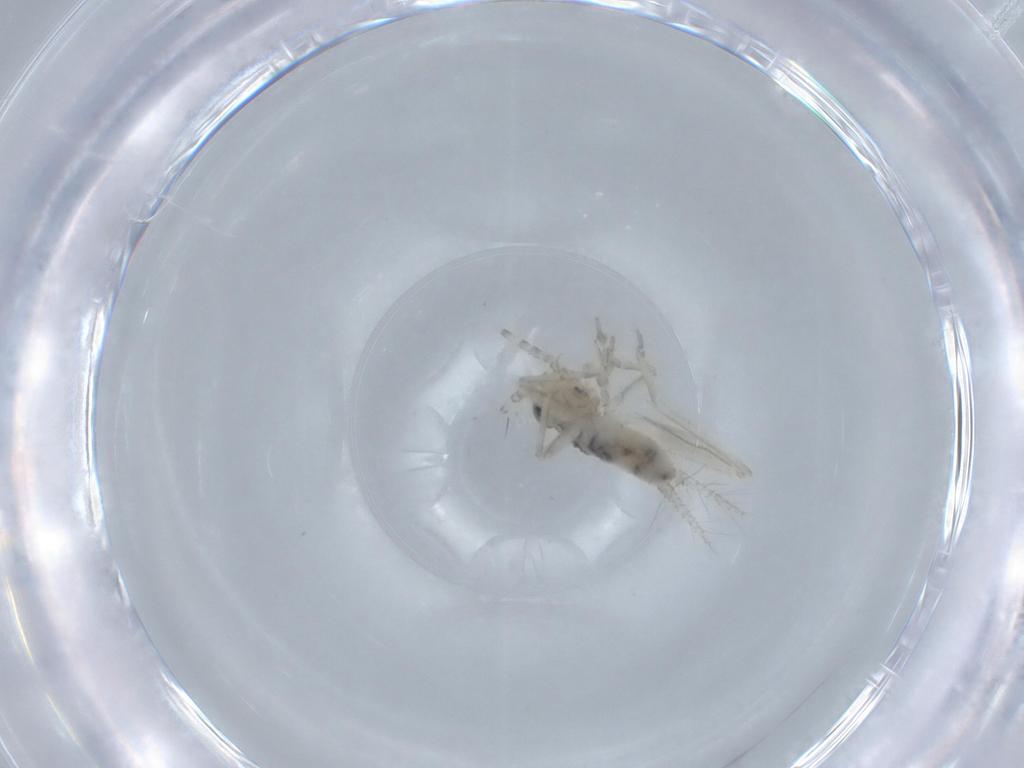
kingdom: Animalia
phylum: Arthropoda
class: Insecta
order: Orthoptera
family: Trigonidiidae
